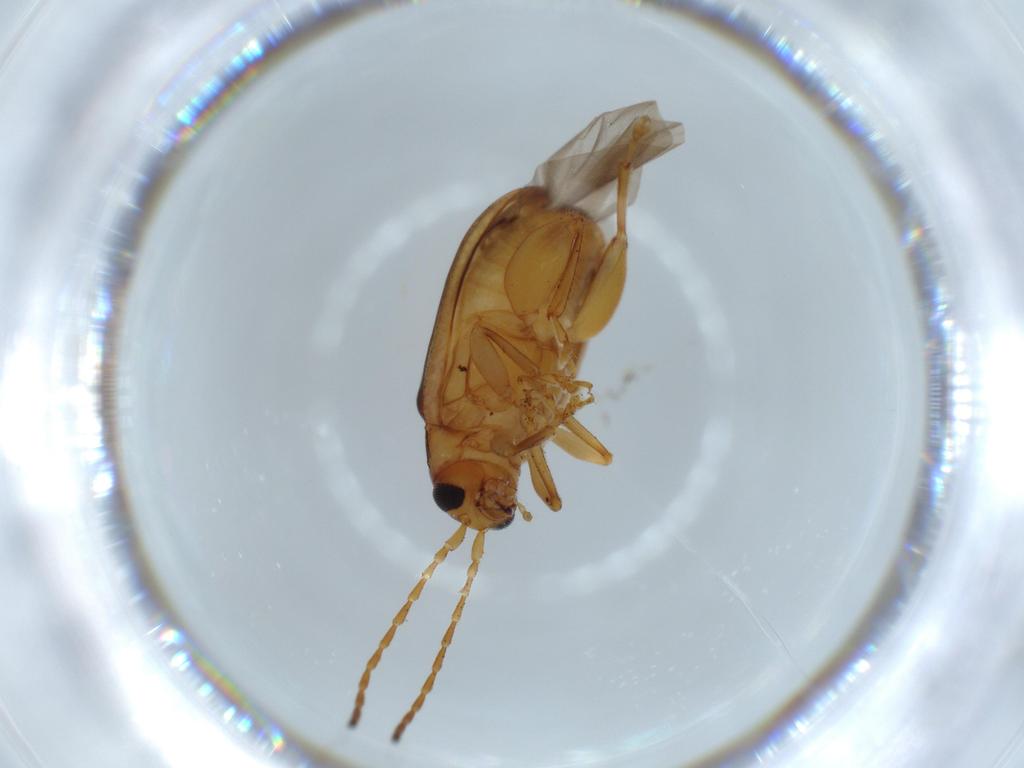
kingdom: Animalia
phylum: Arthropoda
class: Insecta
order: Coleoptera
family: Chrysomelidae
